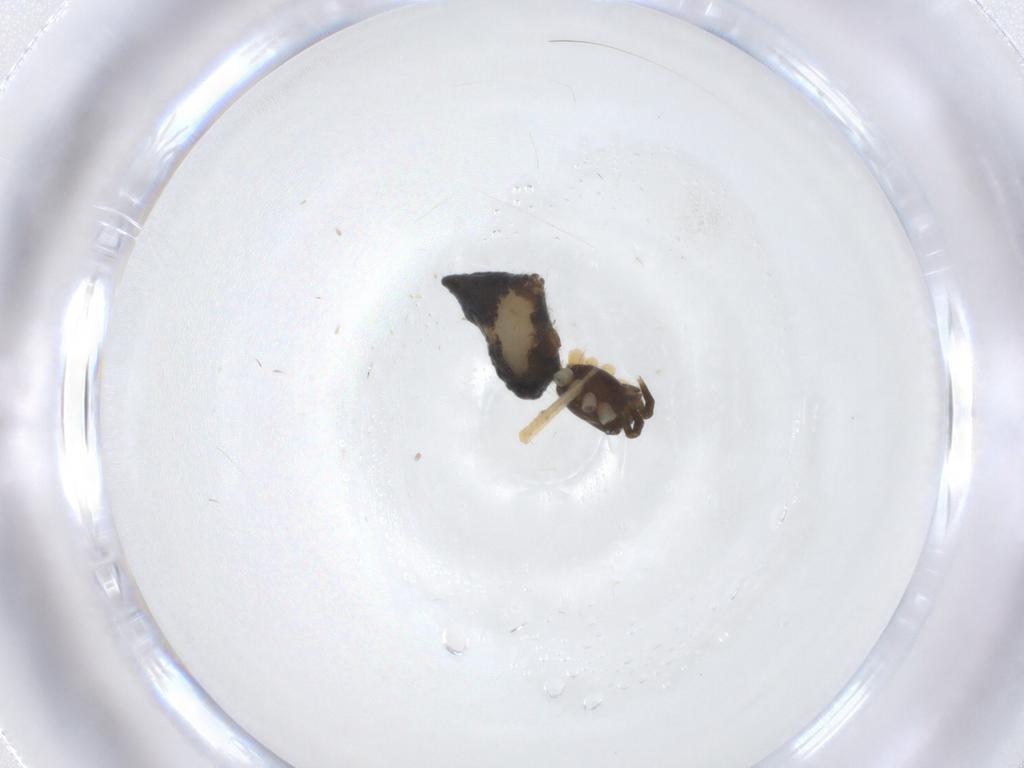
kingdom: Animalia
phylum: Arthropoda
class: Arachnida
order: Araneae
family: Theridiidae
